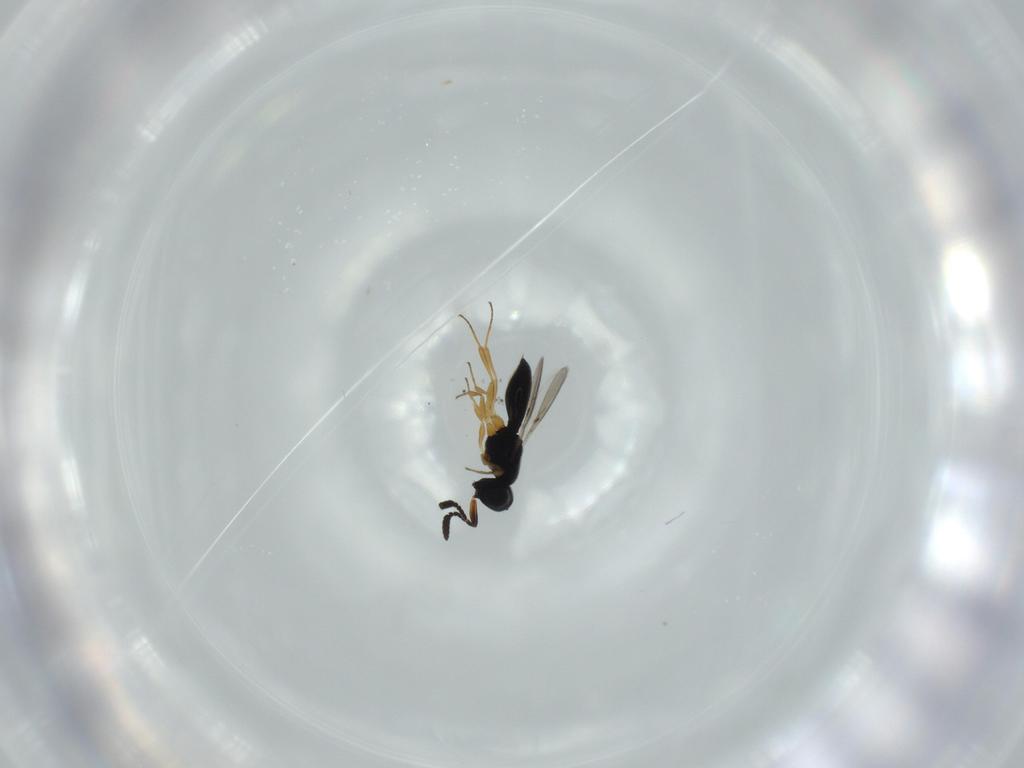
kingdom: Animalia
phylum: Arthropoda
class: Insecta
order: Hymenoptera
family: Scelionidae
